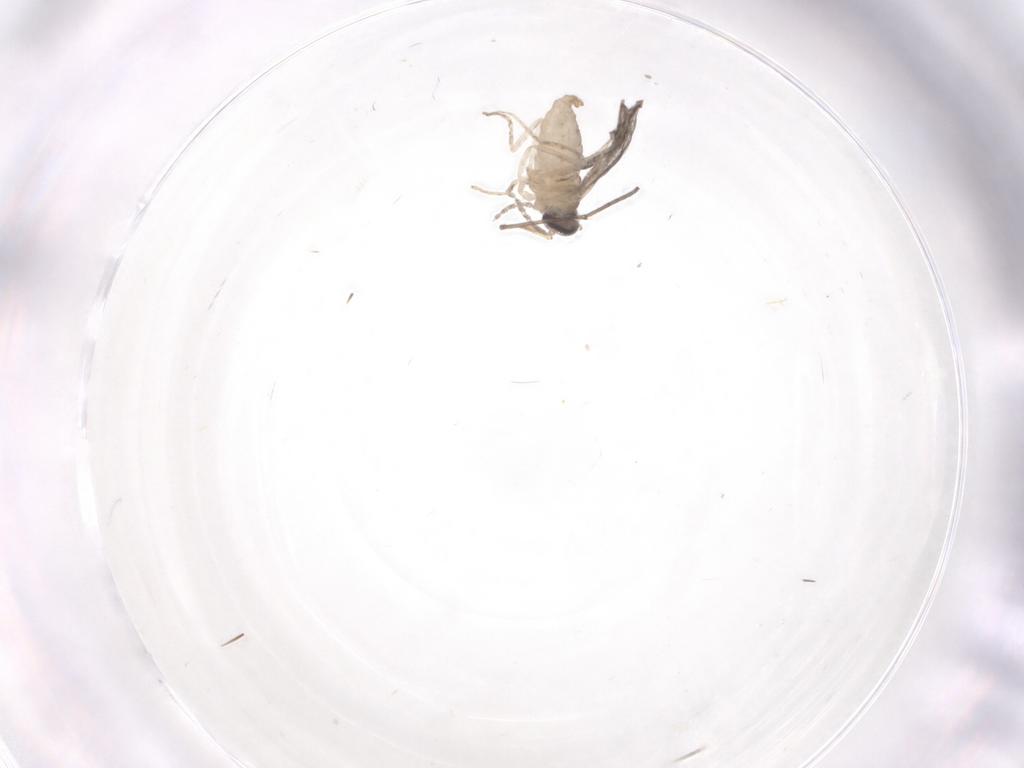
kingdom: Animalia
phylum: Arthropoda
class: Insecta
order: Diptera
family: Cecidomyiidae
